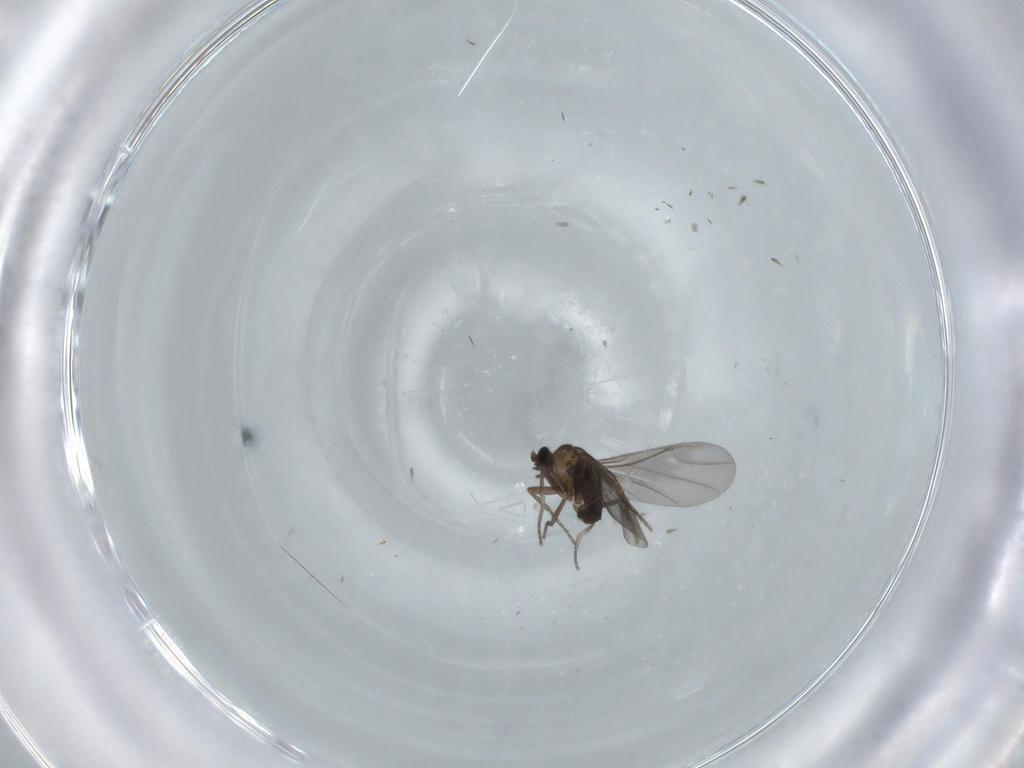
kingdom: Animalia
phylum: Arthropoda
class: Insecta
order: Diptera
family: Phoridae
